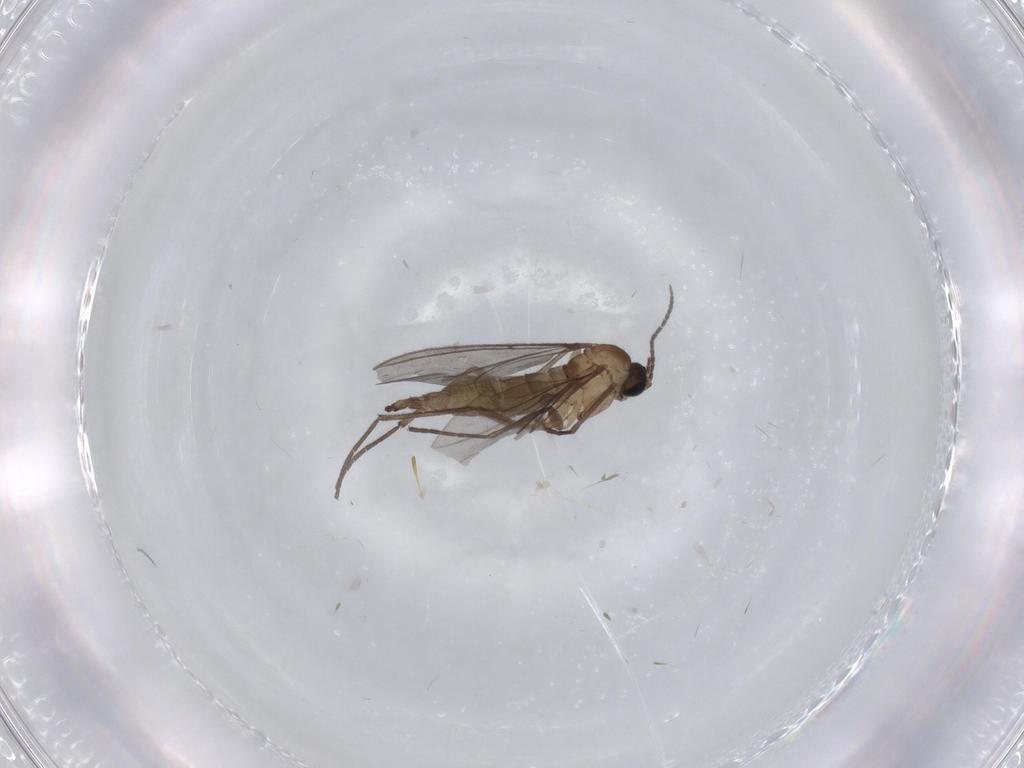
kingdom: Animalia
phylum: Arthropoda
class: Insecta
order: Diptera
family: Sciaridae
